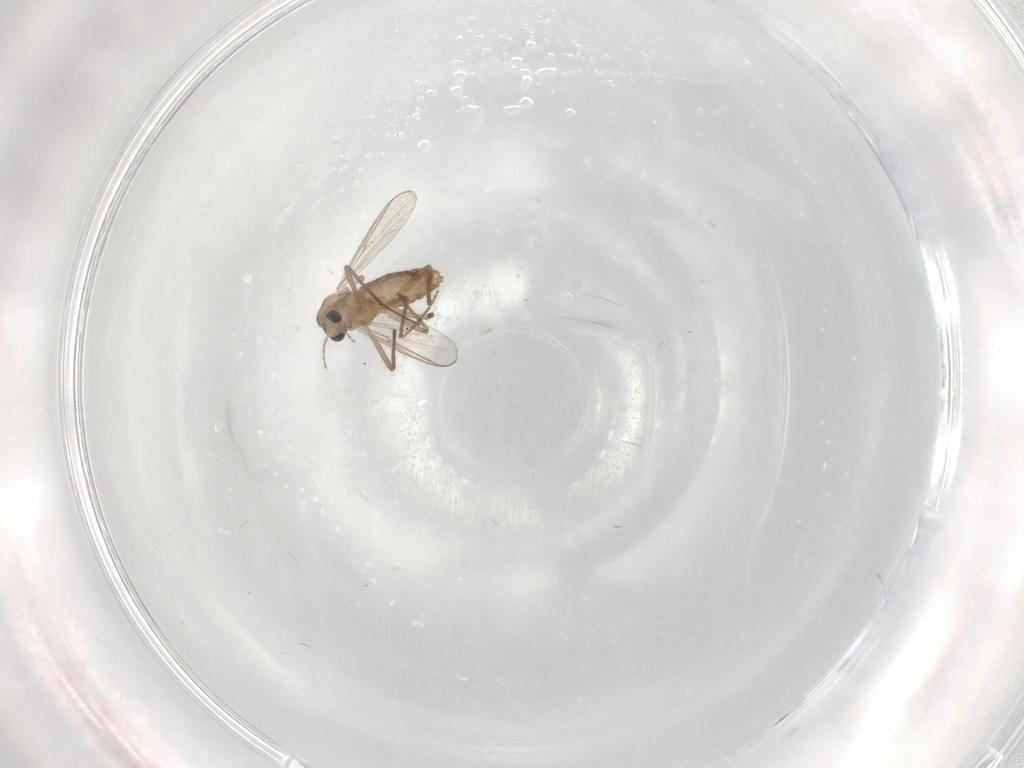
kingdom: Animalia
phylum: Arthropoda
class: Insecta
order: Diptera
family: Chironomidae
